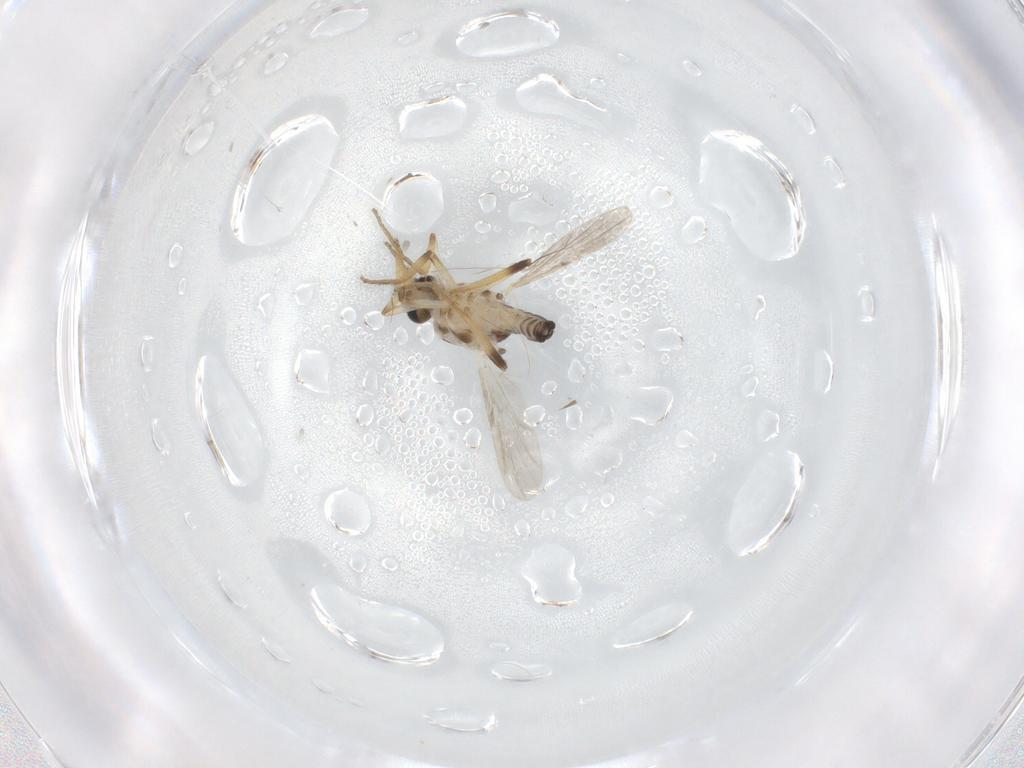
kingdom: Animalia
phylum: Arthropoda
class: Insecta
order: Diptera
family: Ceratopogonidae
